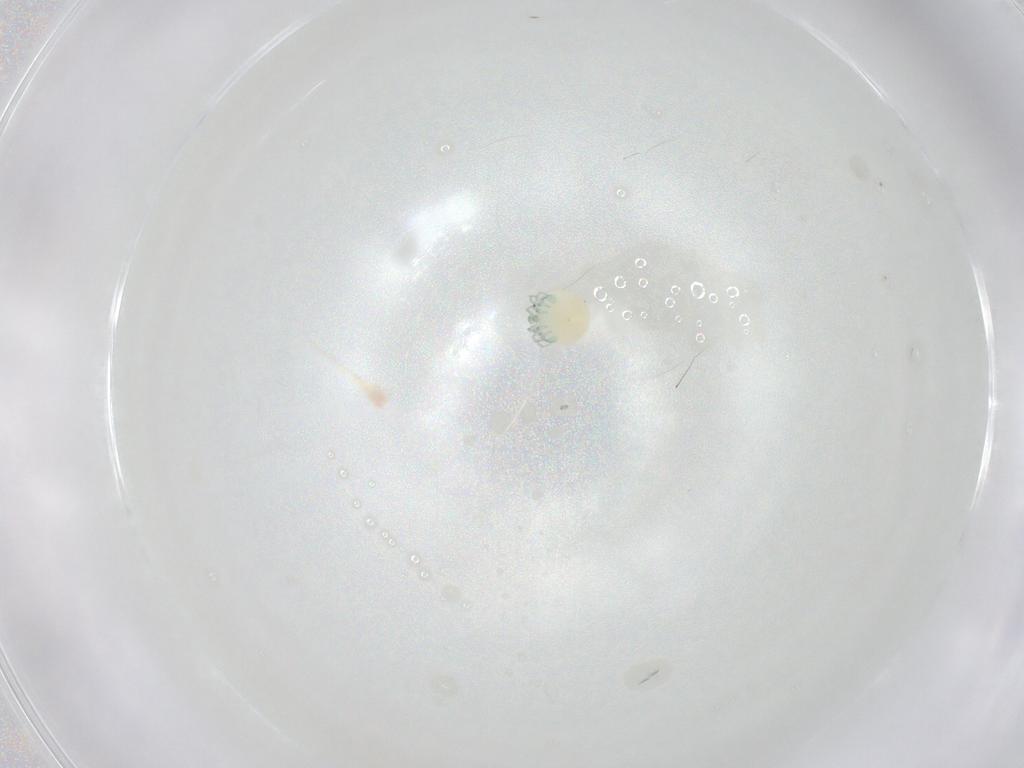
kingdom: Animalia
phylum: Arthropoda
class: Arachnida
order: Trombidiformes
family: Arrenuridae
